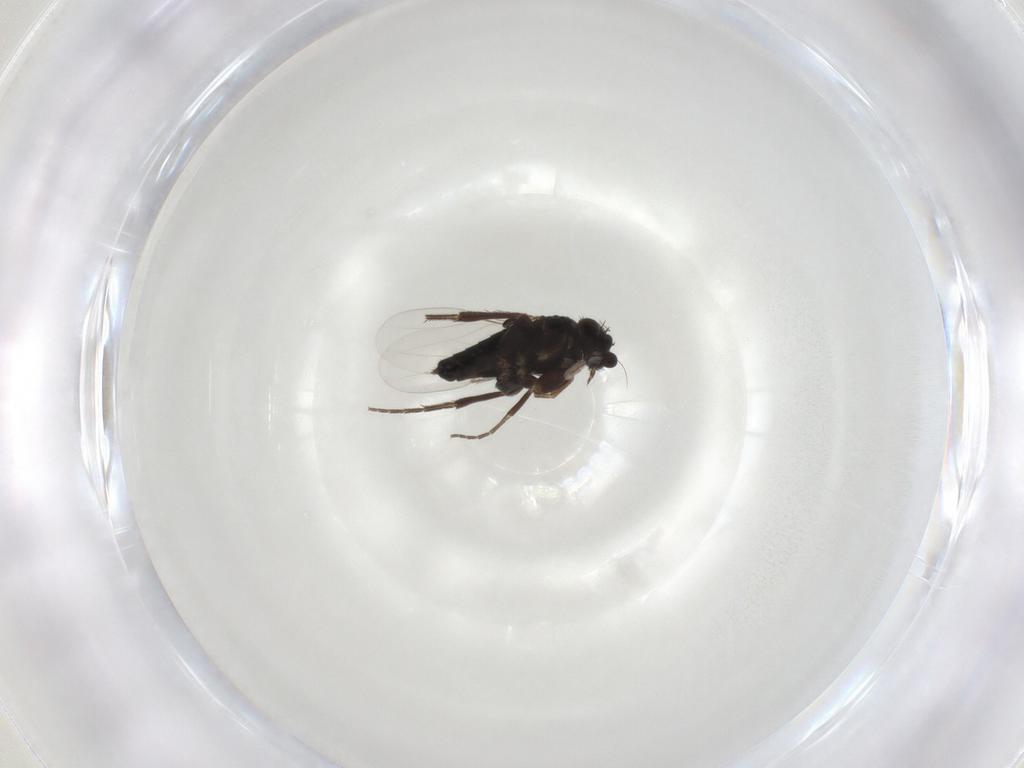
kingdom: Animalia
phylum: Arthropoda
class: Insecta
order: Diptera
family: Phoridae
